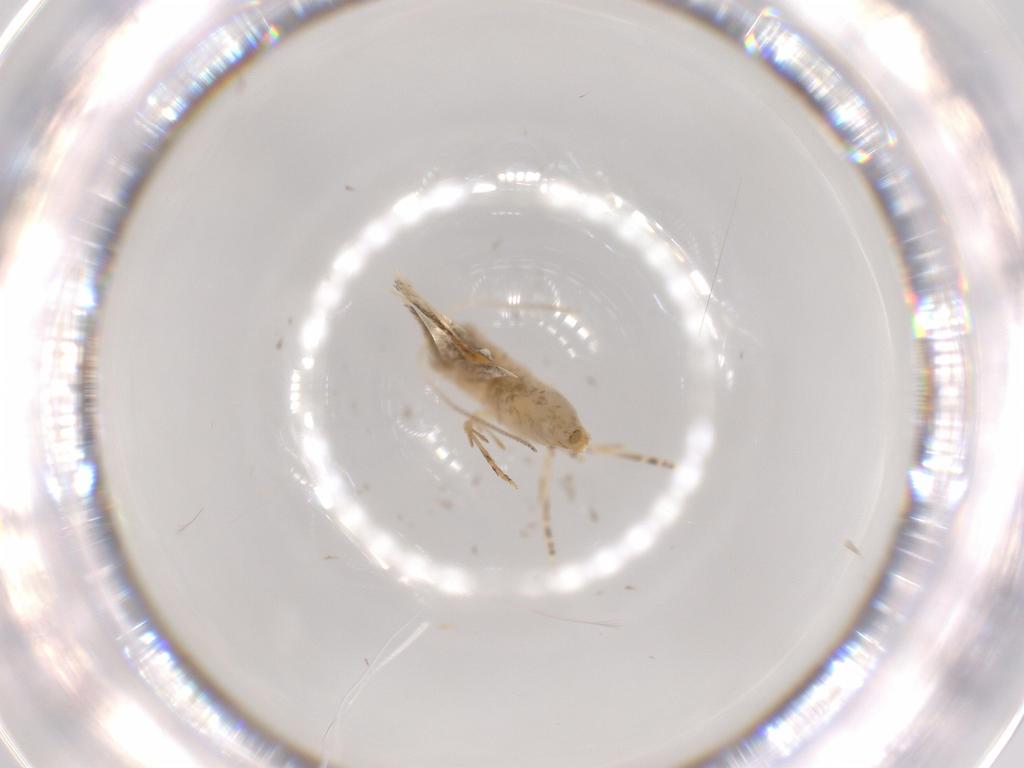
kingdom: Animalia
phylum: Arthropoda
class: Insecta
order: Lepidoptera
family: Bucculatricidae
